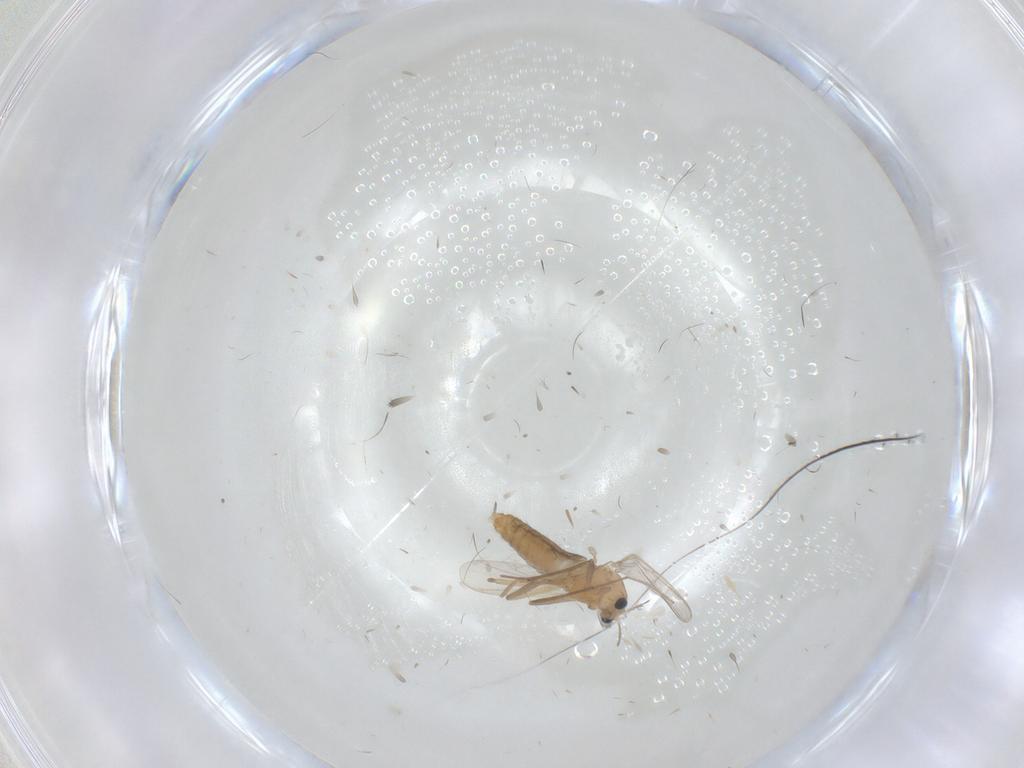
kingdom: Animalia
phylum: Arthropoda
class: Insecta
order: Diptera
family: Chironomidae
